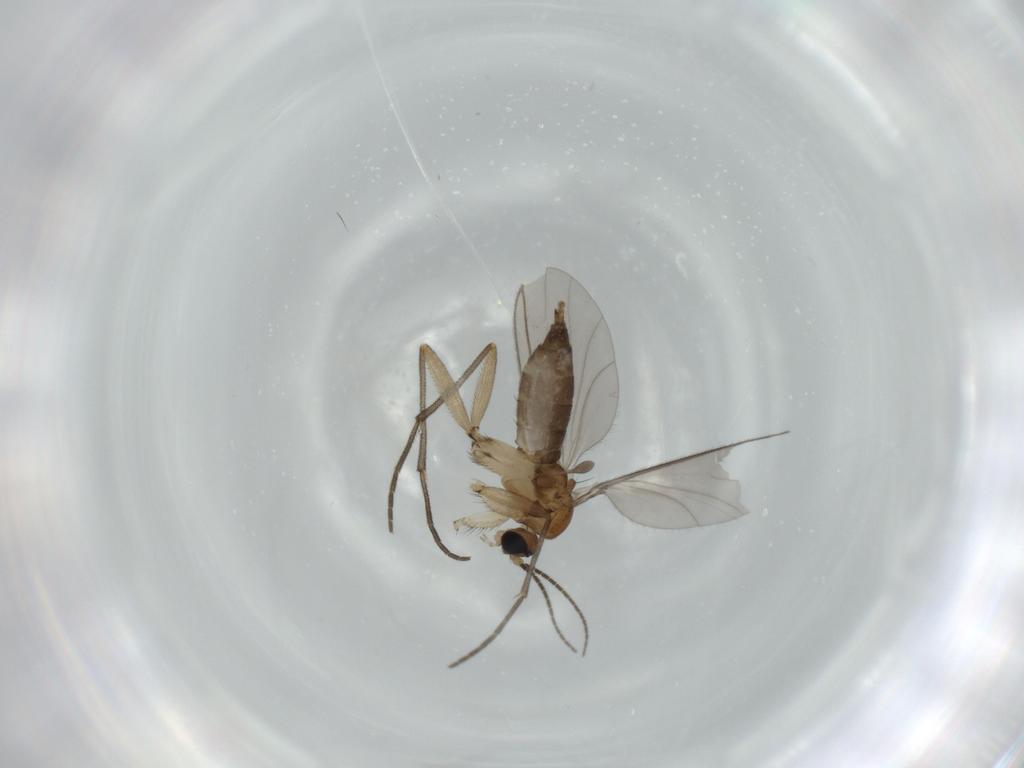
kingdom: Animalia
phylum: Arthropoda
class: Insecta
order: Diptera
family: Sciaridae
